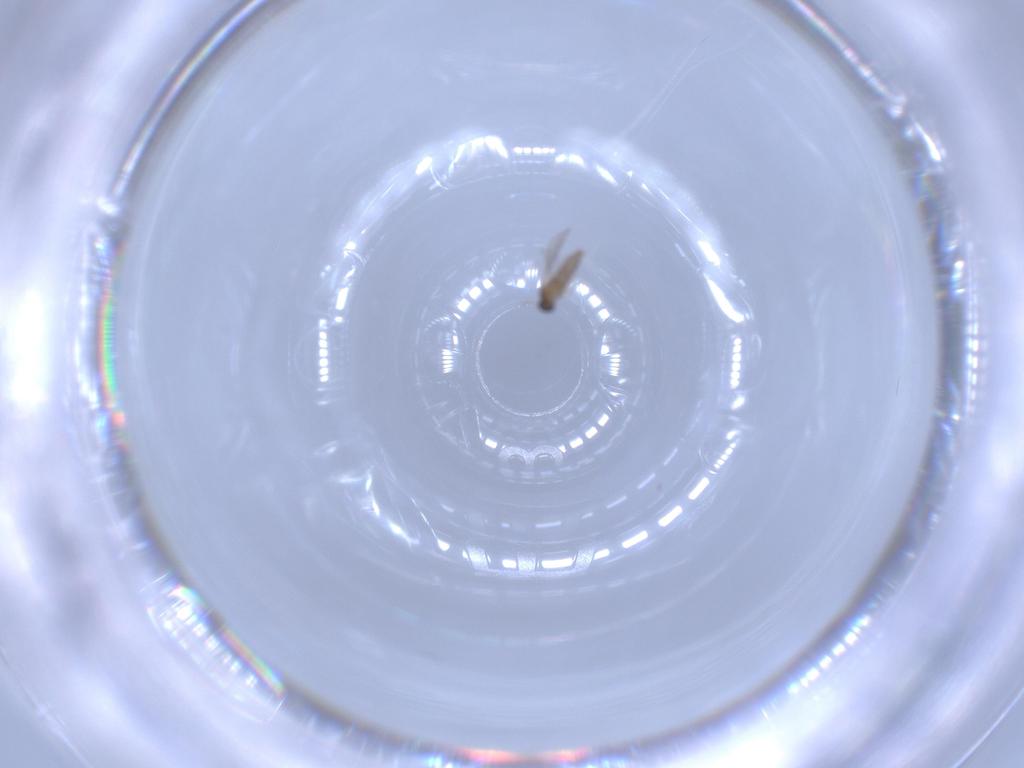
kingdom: Animalia
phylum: Arthropoda
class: Insecta
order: Diptera
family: Cecidomyiidae
